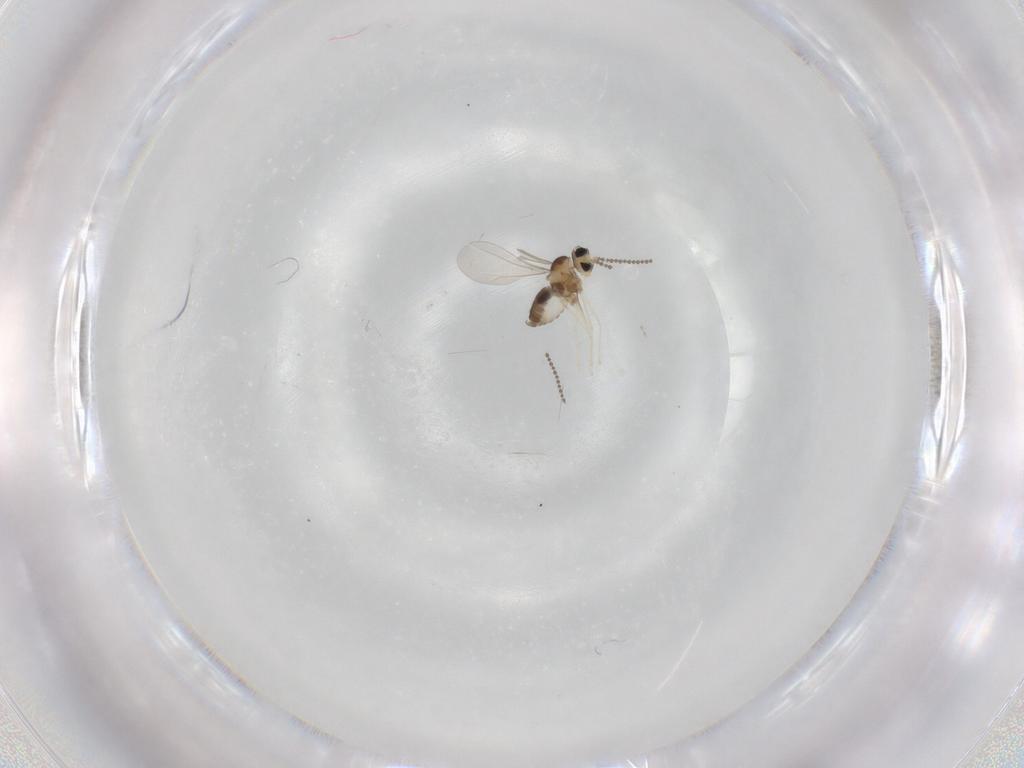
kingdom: Animalia
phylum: Arthropoda
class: Insecta
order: Diptera
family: Cecidomyiidae
